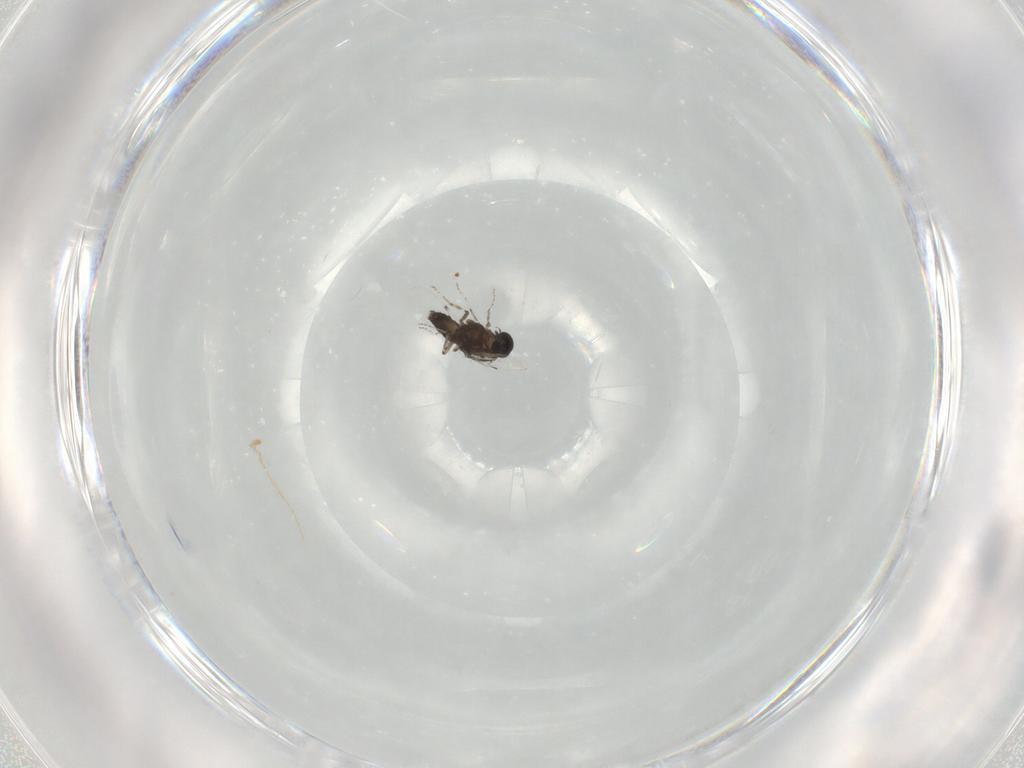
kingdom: Animalia
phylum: Arthropoda
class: Insecta
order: Diptera
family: Ceratopogonidae
